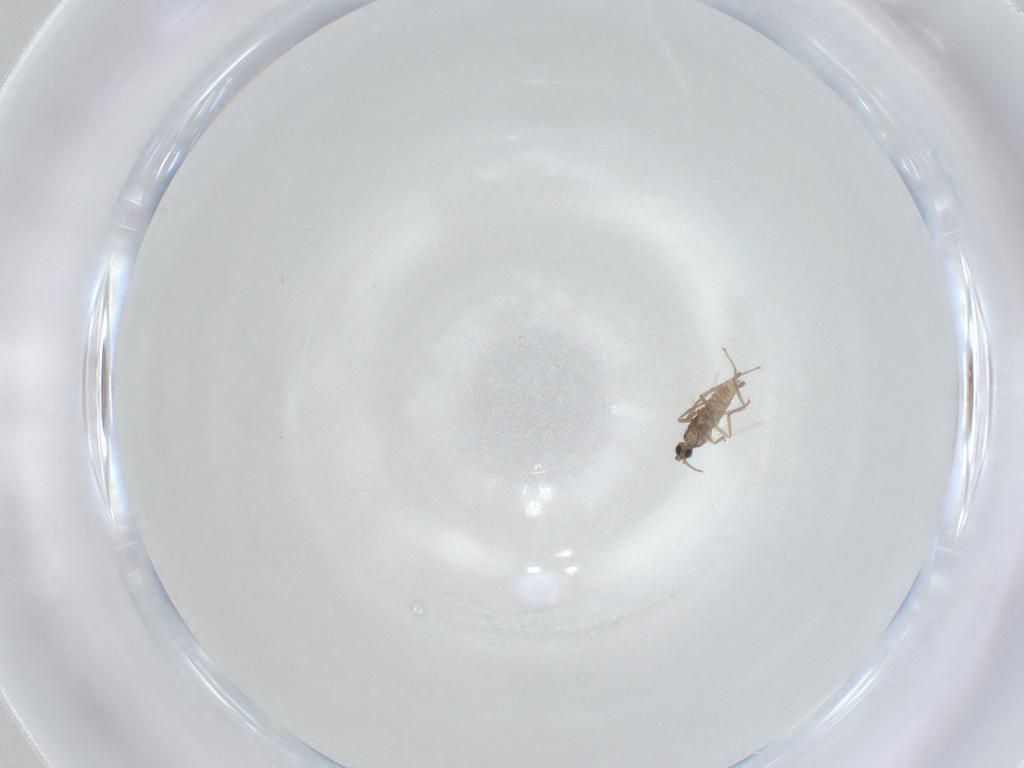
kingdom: Animalia
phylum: Arthropoda
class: Insecta
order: Diptera
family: Cecidomyiidae
